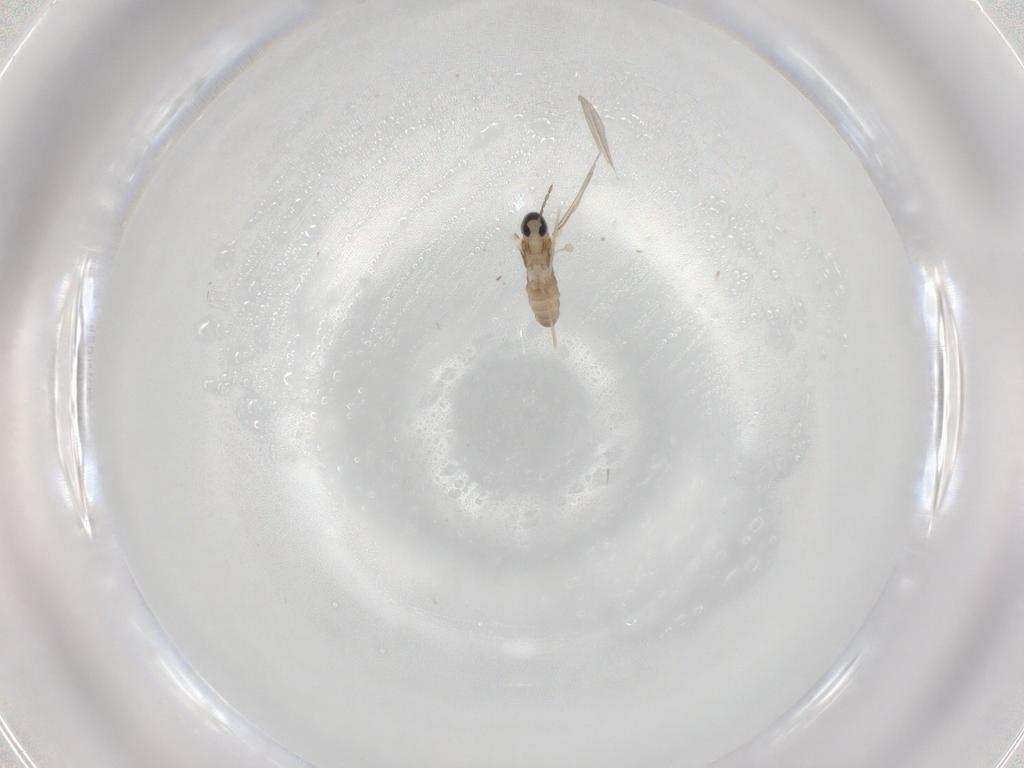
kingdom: Animalia
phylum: Arthropoda
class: Insecta
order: Diptera
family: Cecidomyiidae
